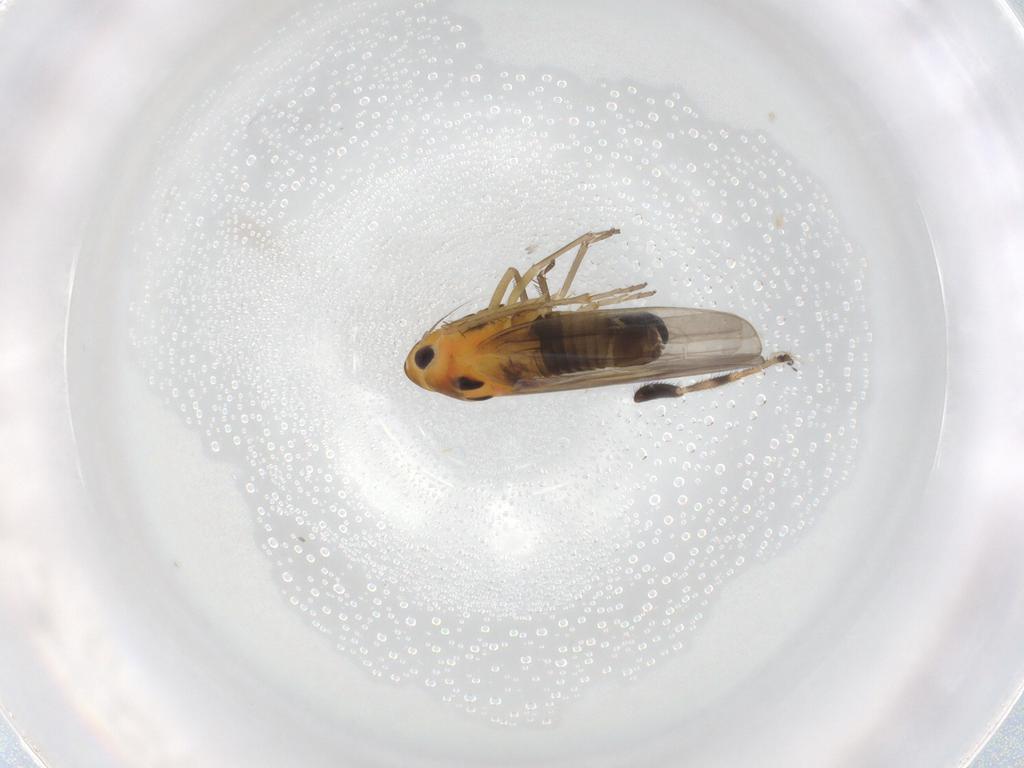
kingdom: Animalia
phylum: Arthropoda
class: Insecta
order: Hemiptera
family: Cicadellidae
